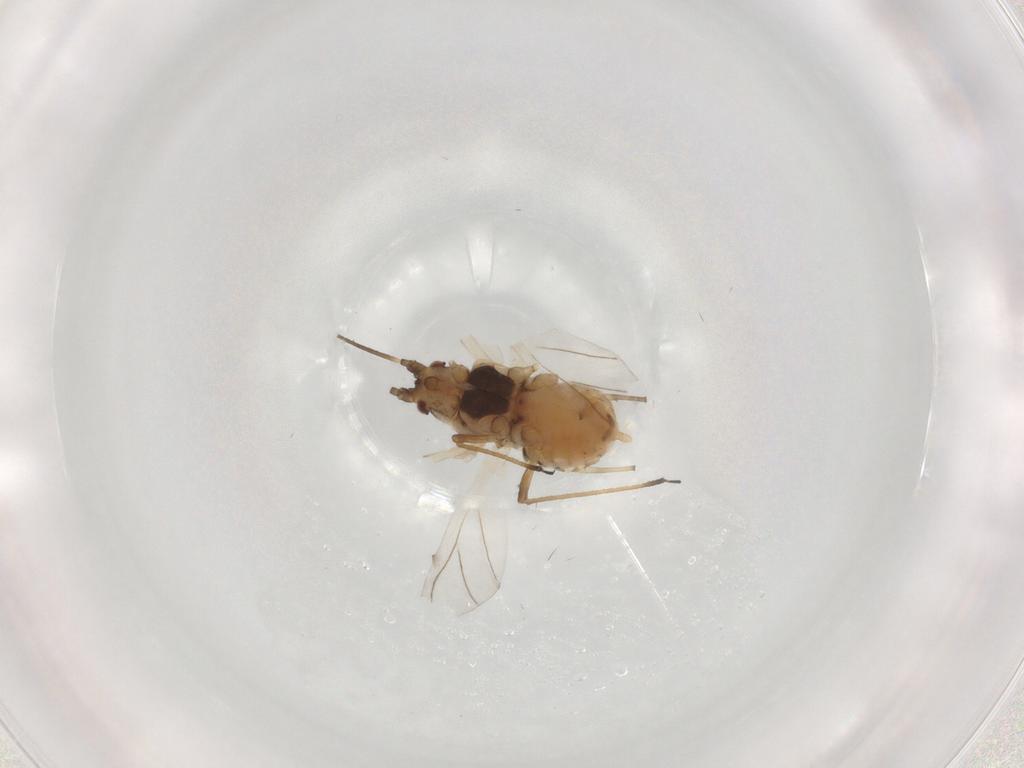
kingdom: Animalia
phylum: Arthropoda
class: Insecta
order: Hemiptera
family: Aphididae
